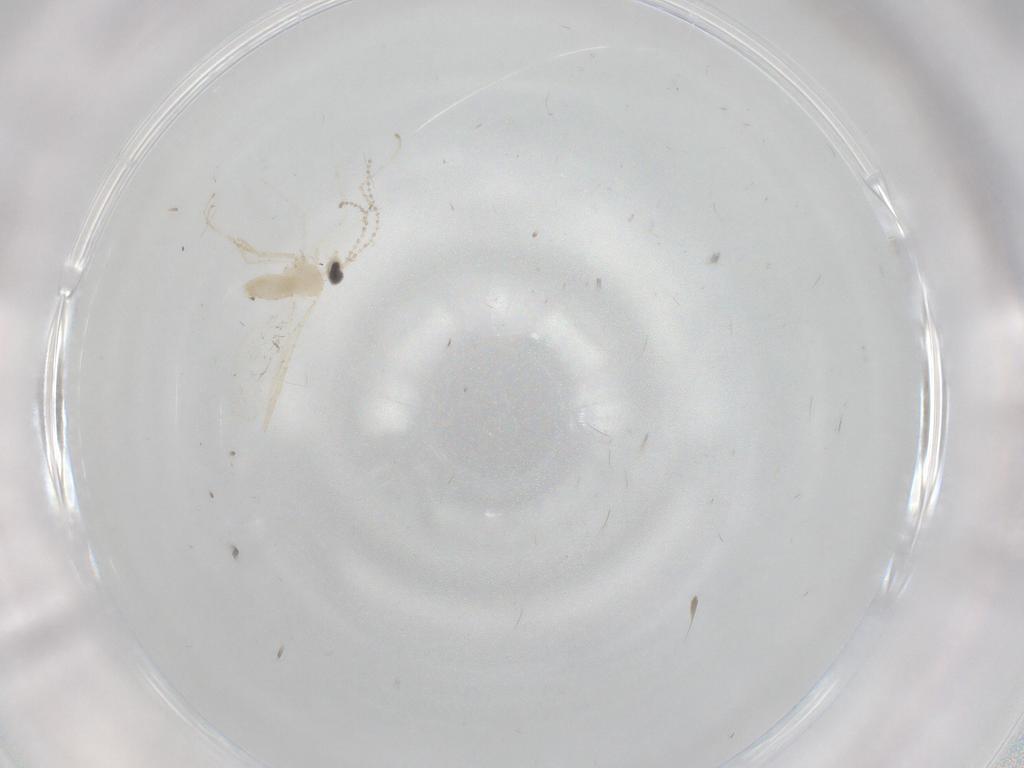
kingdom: Animalia
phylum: Arthropoda
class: Insecta
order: Diptera
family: Cecidomyiidae
